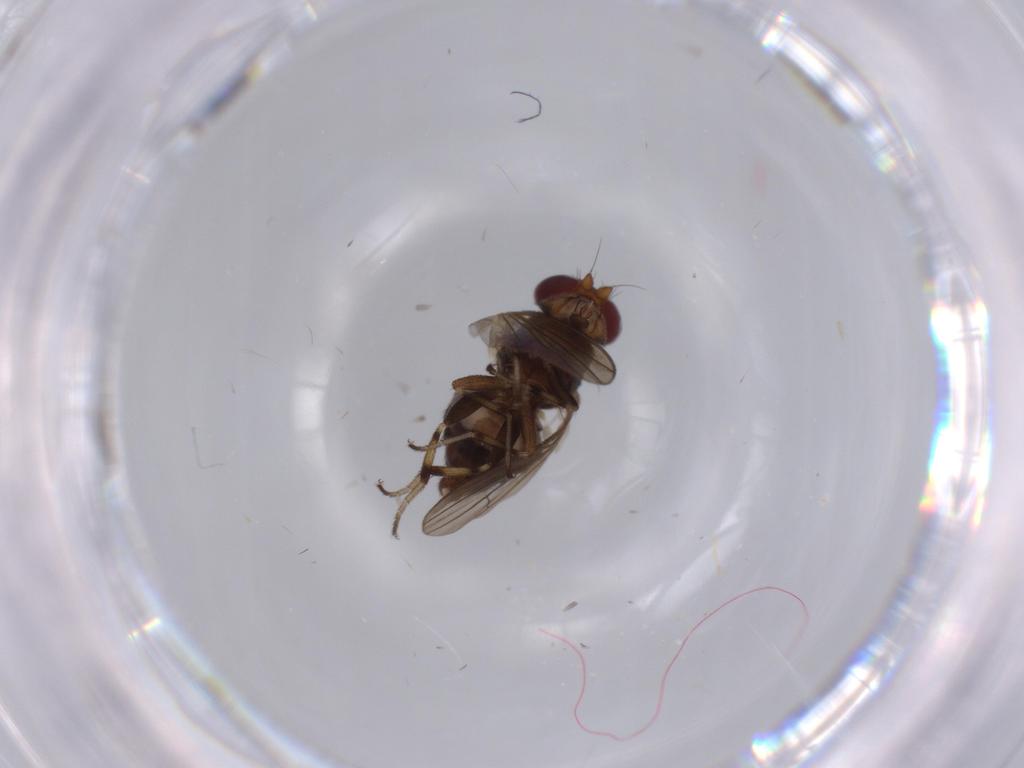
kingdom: Animalia
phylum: Arthropoda
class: Insecta
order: Diptera
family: Heleomyzidae
